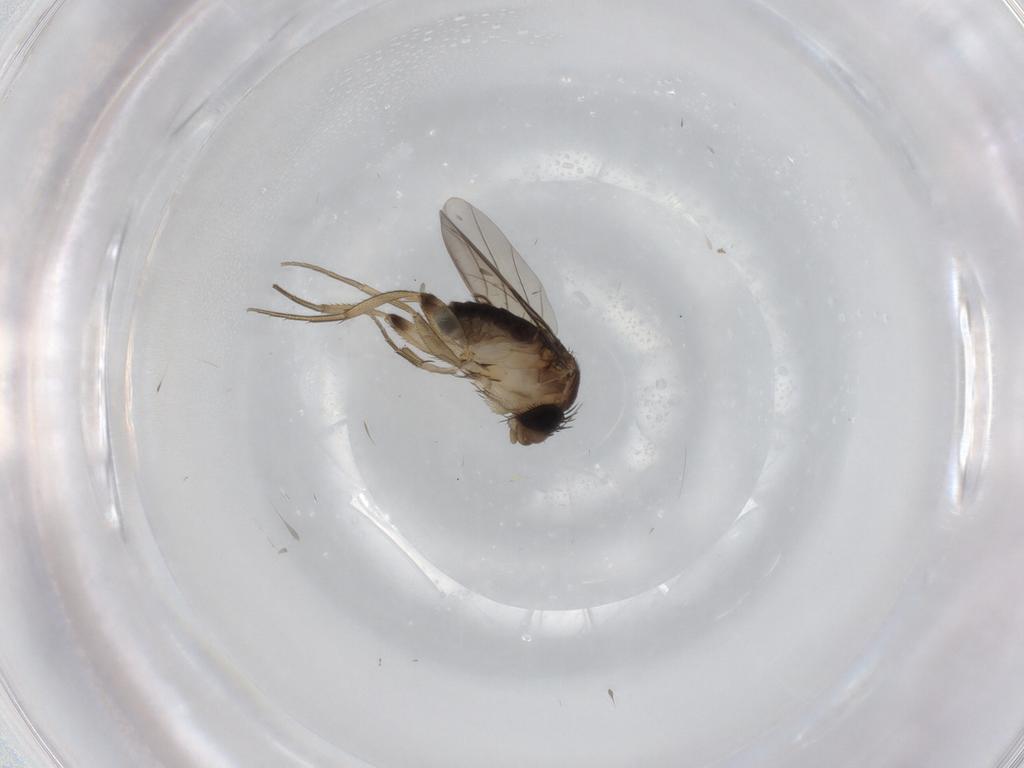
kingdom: Animalia
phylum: Arthropoda
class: Insecta
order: Diptera
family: Phoridae
